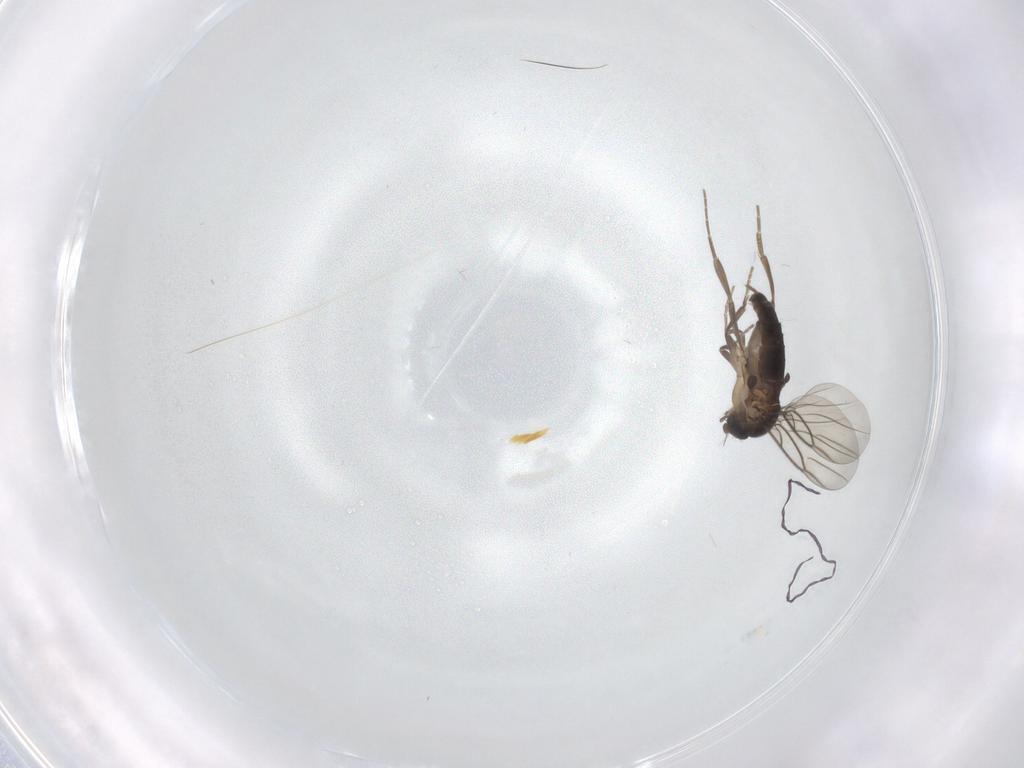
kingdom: Animalia
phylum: Arthropoda
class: Insecta
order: Diptera
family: Phoridae
